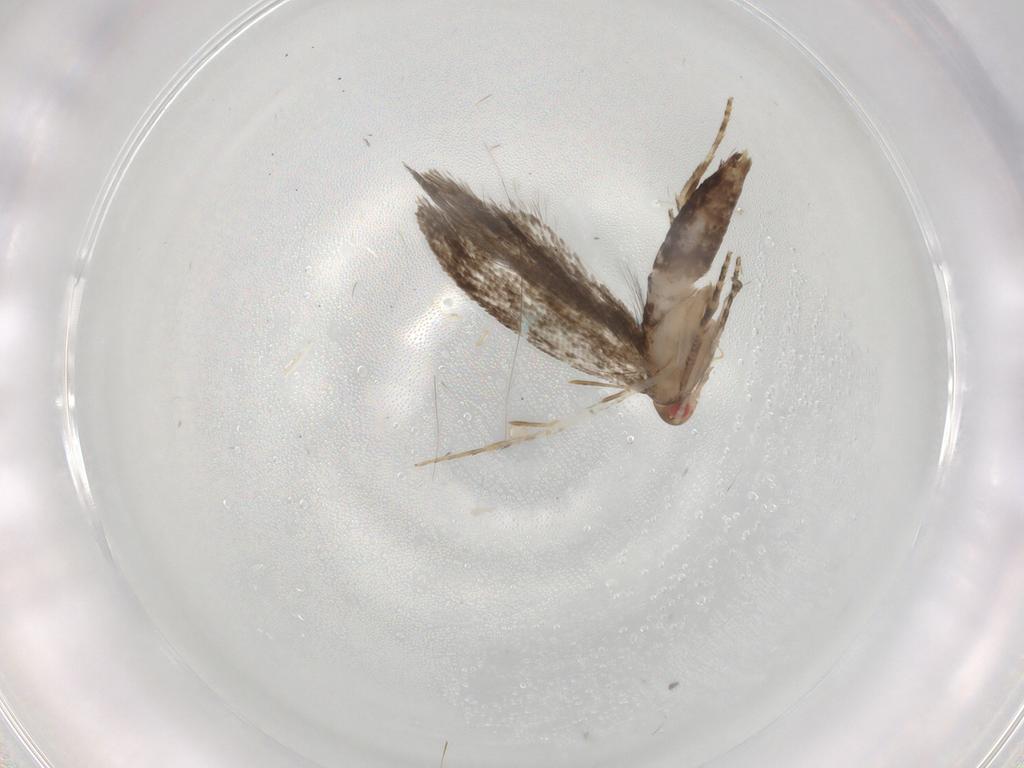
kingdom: Animalia
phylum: Arthropoda
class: Insecta
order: Lepidoptera
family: Gelechiidae
